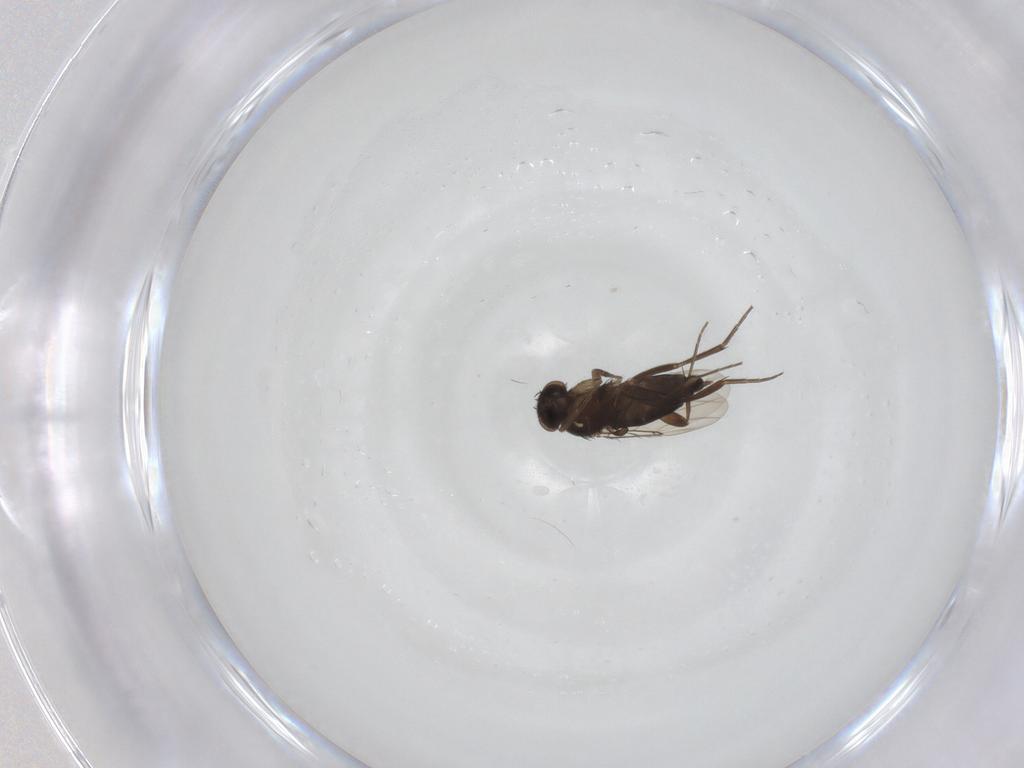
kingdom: Animalia
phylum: Arthropoda
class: Insecta
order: Diptera
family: Phoridae
